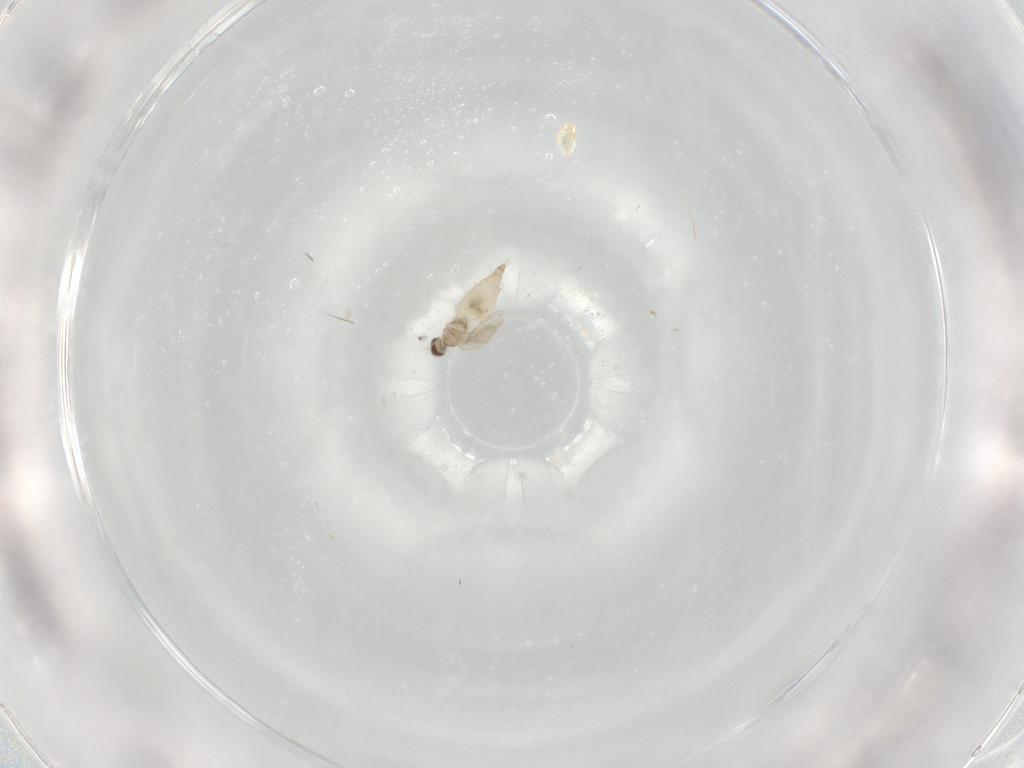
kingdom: Animalia
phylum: Arthropoda
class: Insecta
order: Diptera
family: Cecidomyiidae
